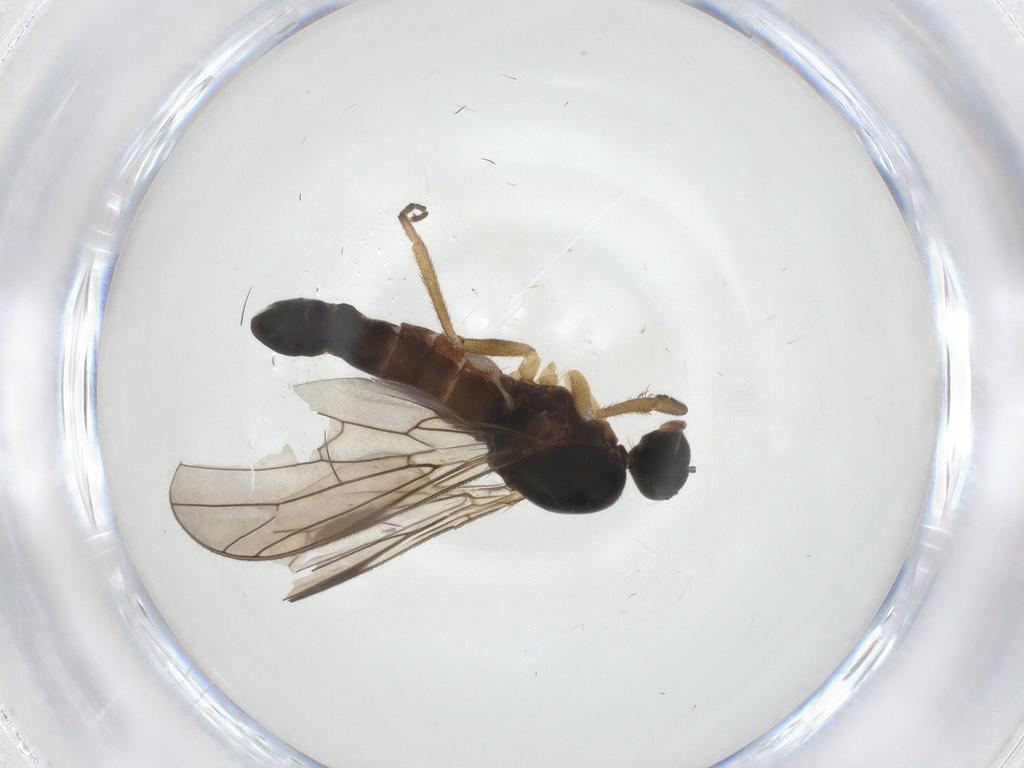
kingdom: Animalia
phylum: Arthropoda
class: Insecta
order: Diptera
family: Empididae
